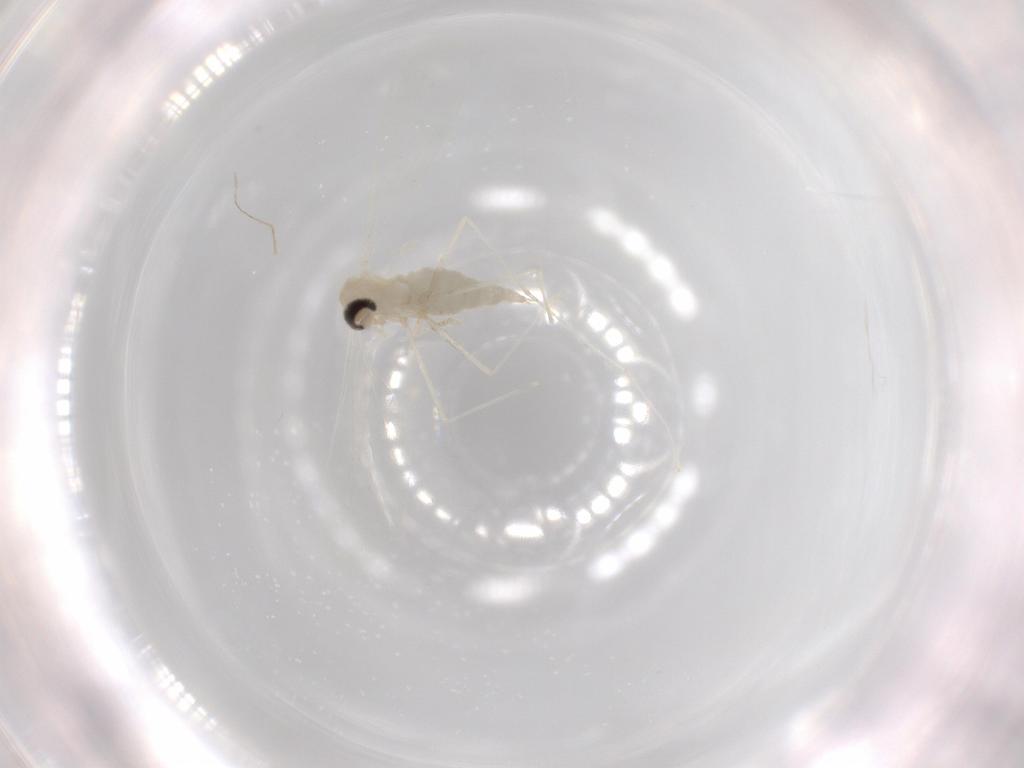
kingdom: Animalia
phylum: Arthropoda
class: Insecta
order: Diptera
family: Cecidomyiidae
